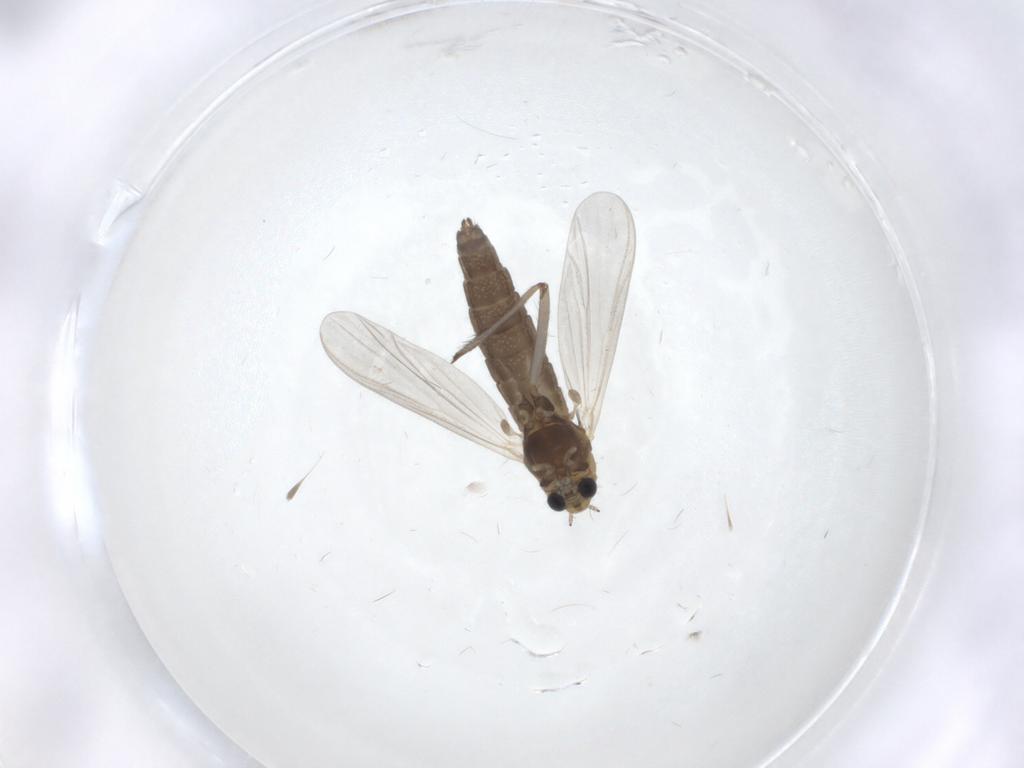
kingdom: Animalia
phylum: Arthropoda
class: Insecta
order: Diptera
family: Chironomidae
